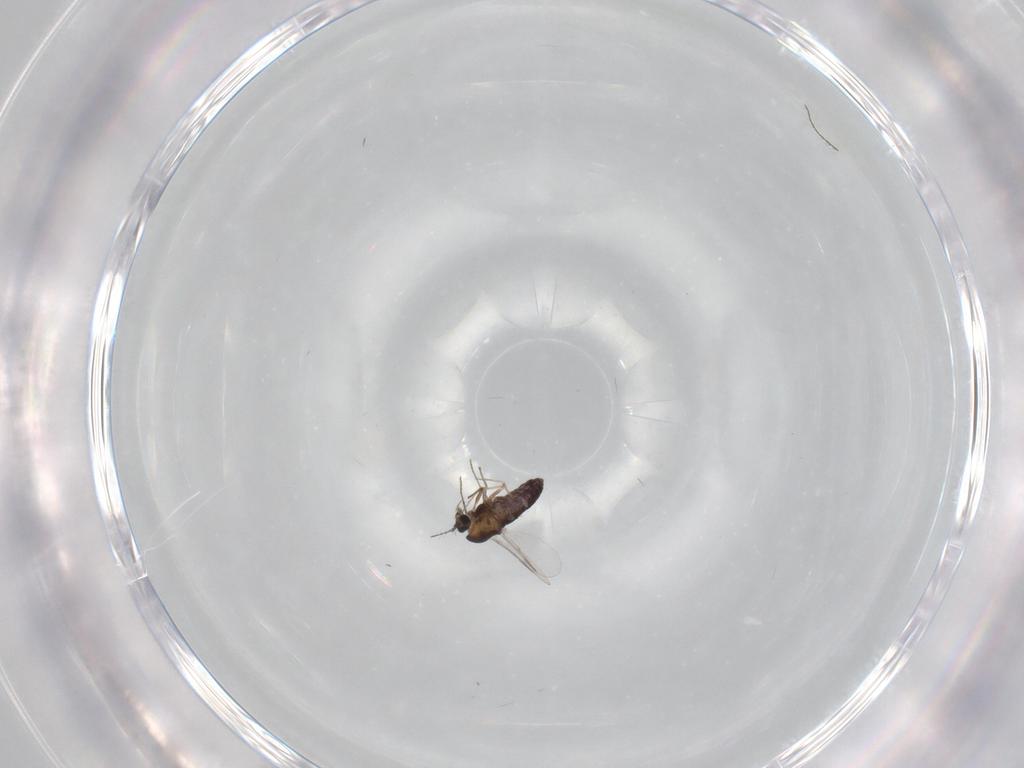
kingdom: Animalia
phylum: Arthropoda
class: Insecta
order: Diptera
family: Chironomidae
